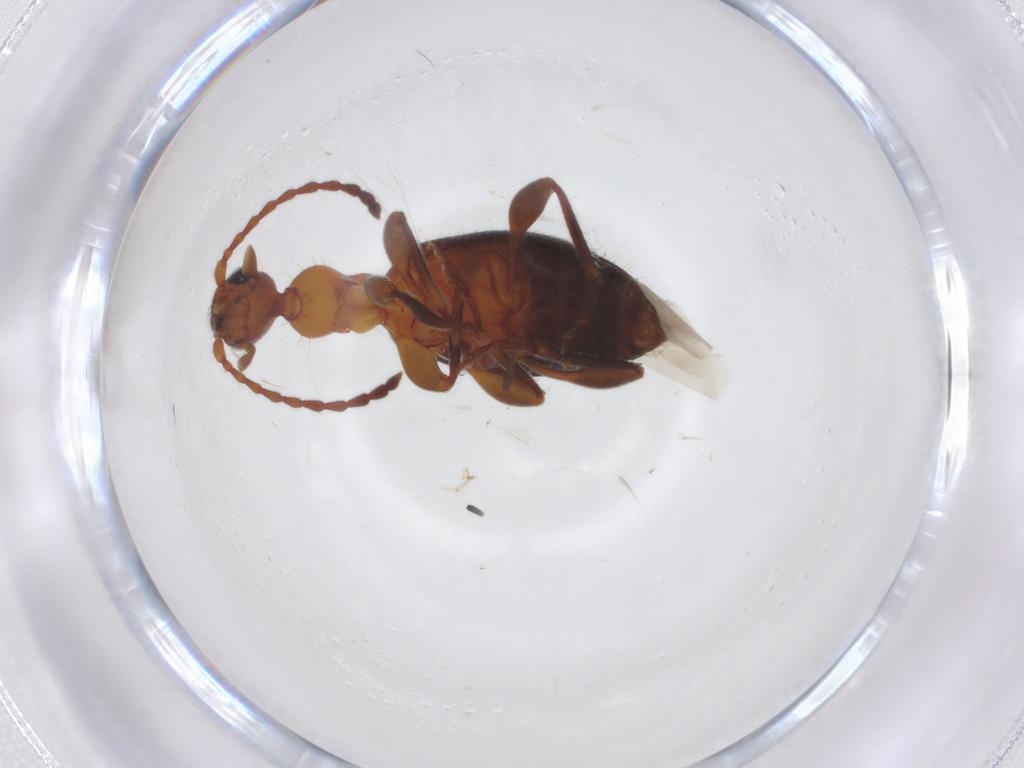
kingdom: Animalia
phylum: Arthropoda
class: Insecta
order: Coleoptera
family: Anthicidae
